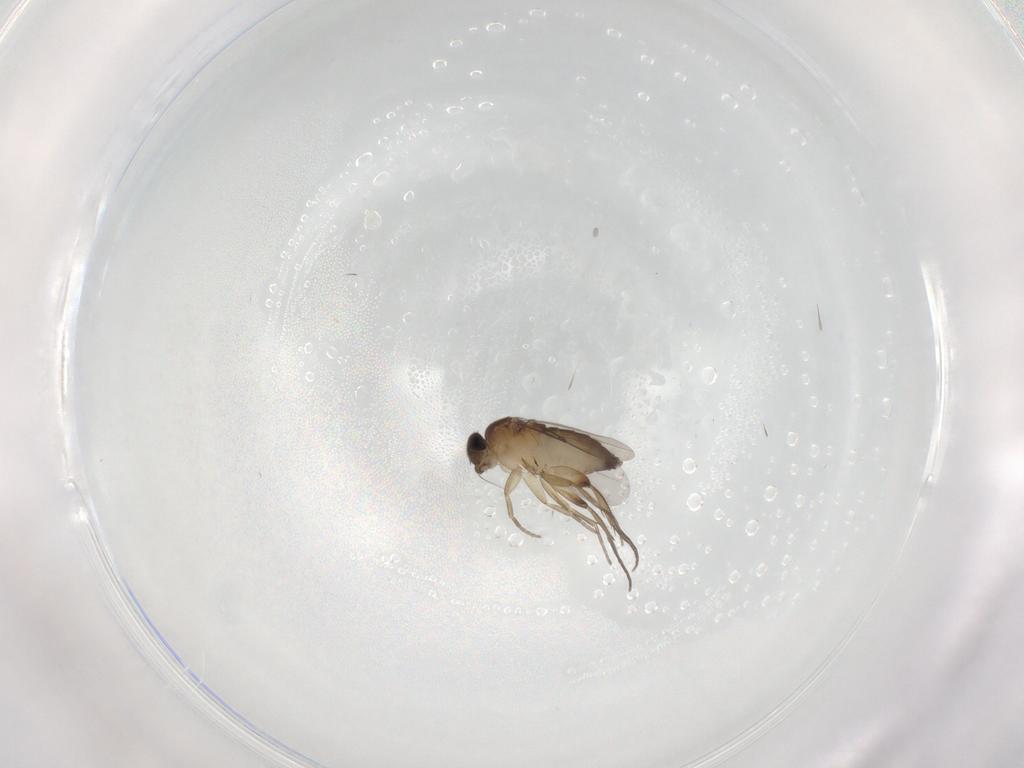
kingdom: Animalia
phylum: Arthropoda
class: Insecta
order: Diptera
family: Phoridae
